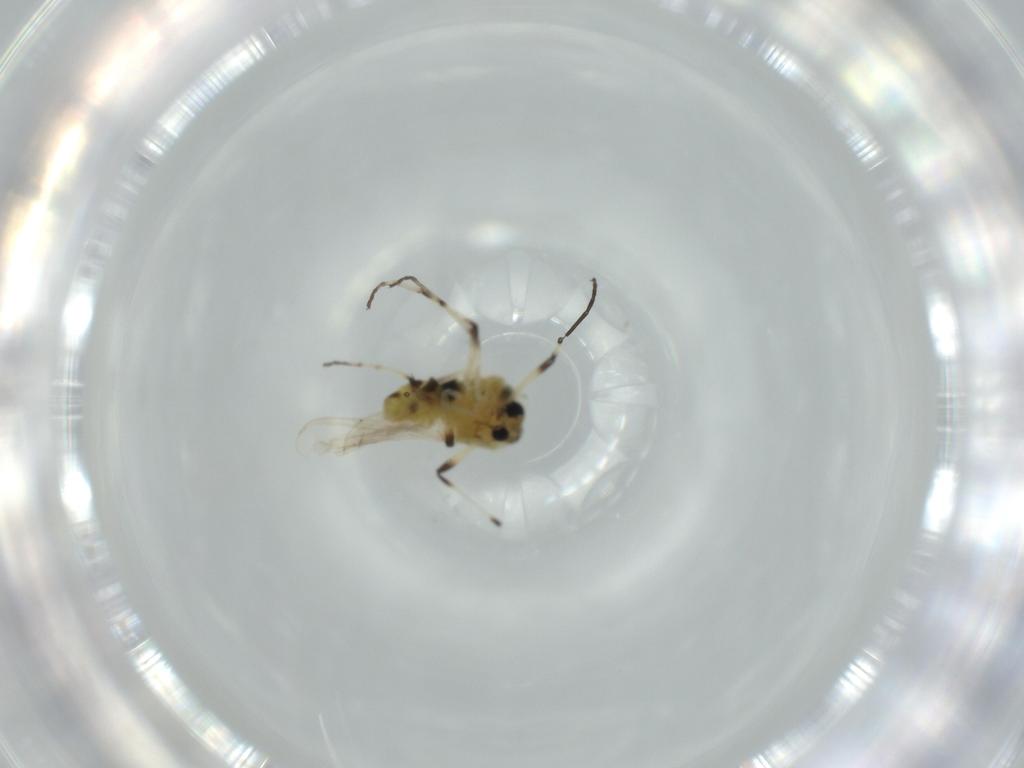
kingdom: Animalia
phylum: Arthropoda
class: Insecta
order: Diptera
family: Chironomidae
